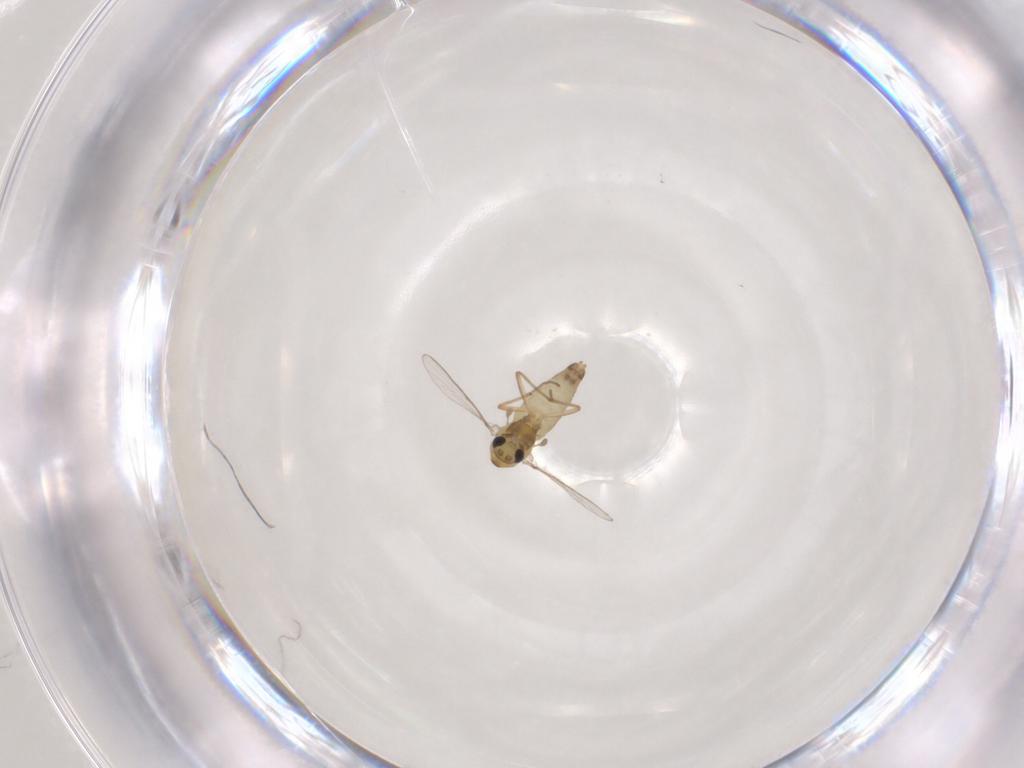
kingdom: Animalia
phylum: Arthropoda
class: Insecta
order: Diptera
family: Chironomidae
